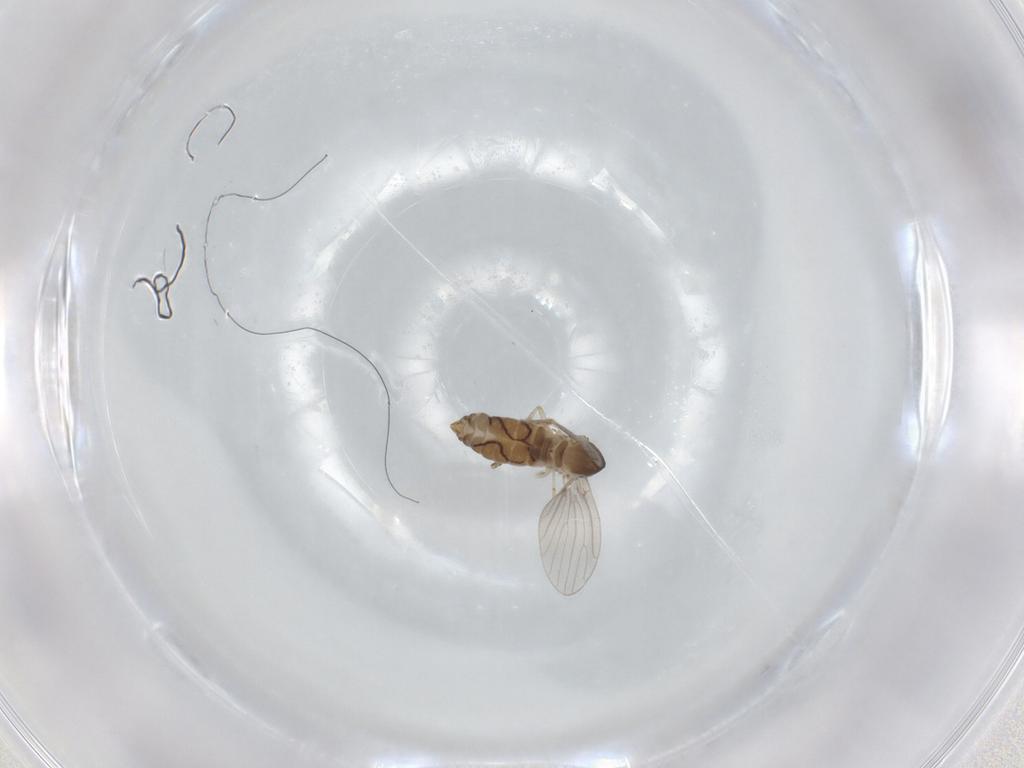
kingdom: Animalia
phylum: Arthropoda
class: Insecta
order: Diptera
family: Cecidomyiidae
